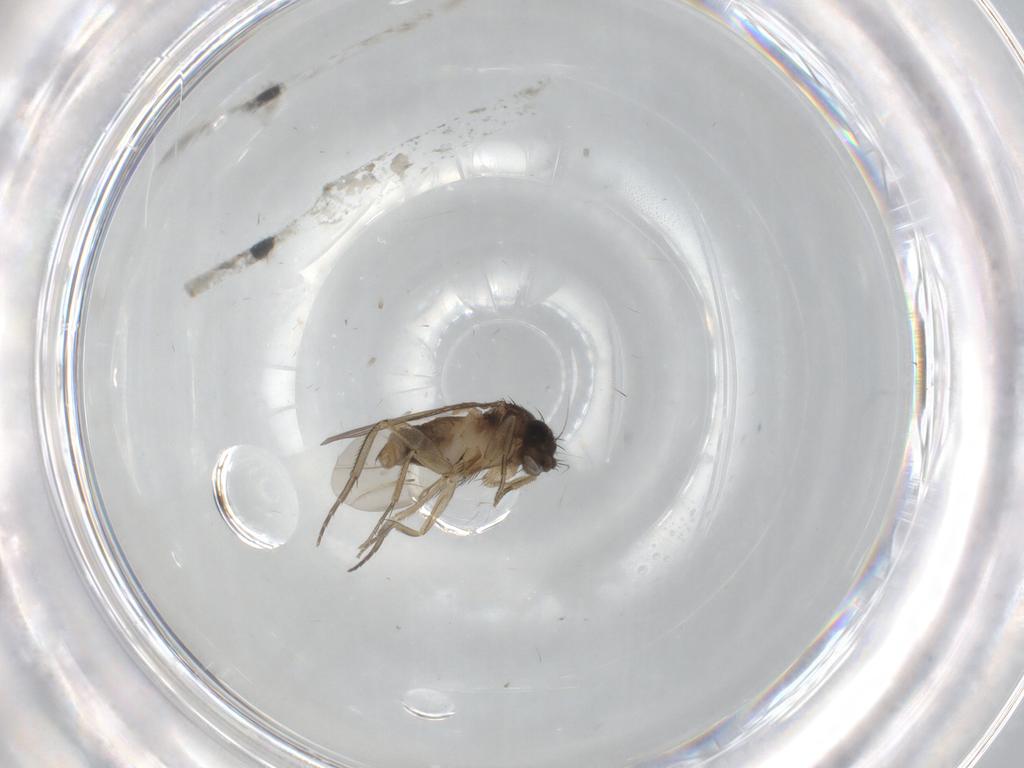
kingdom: Animalia
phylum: Arthropoda
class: Insecta
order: Diptera
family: Phoridae
